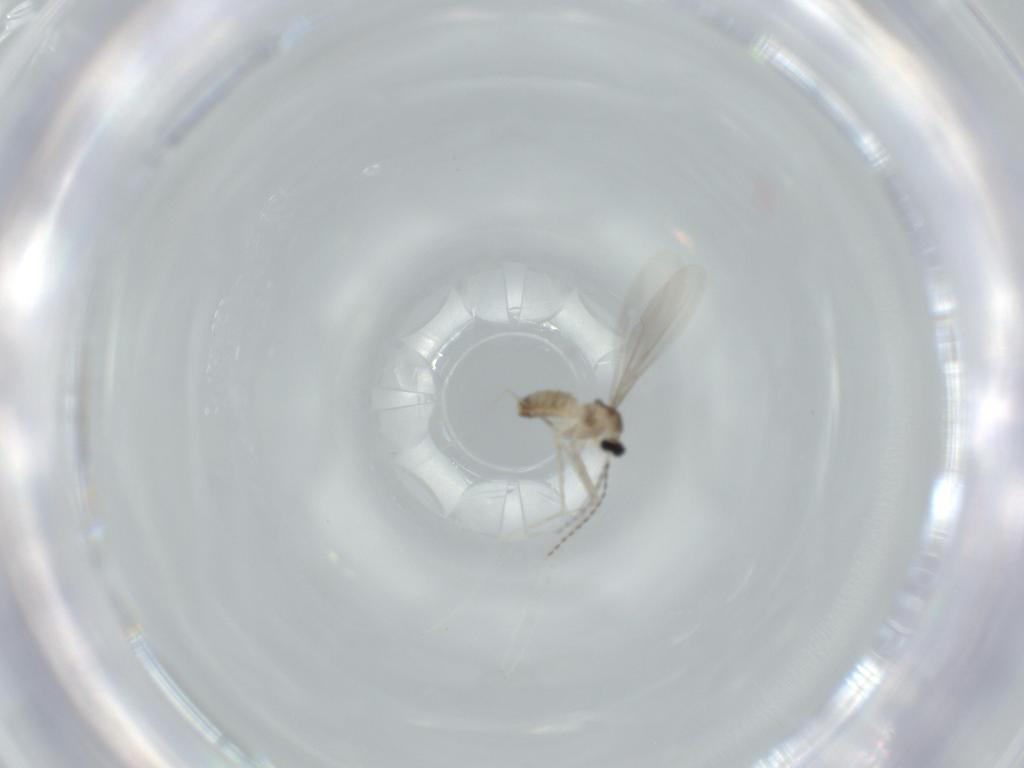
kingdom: Animalia
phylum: Arthropoda
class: Insecta
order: Diptera
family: Cecidomyiidae
